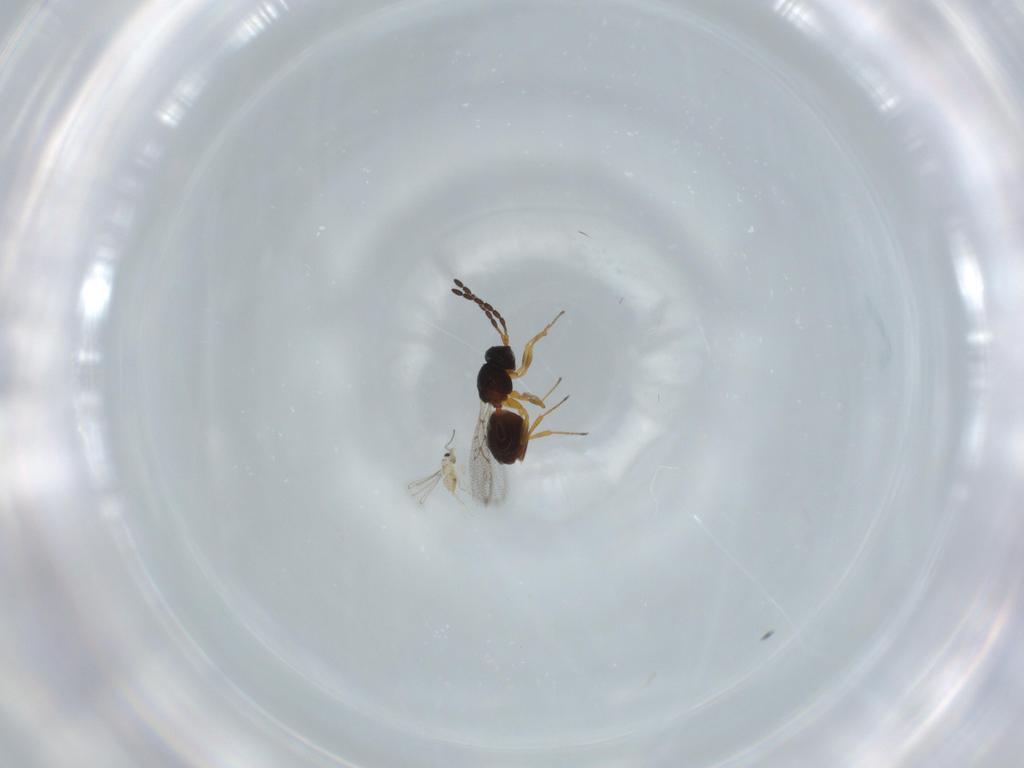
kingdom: Animalia
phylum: Arthropoda
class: Insecta
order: Hymenoptera
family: Mymaridae
